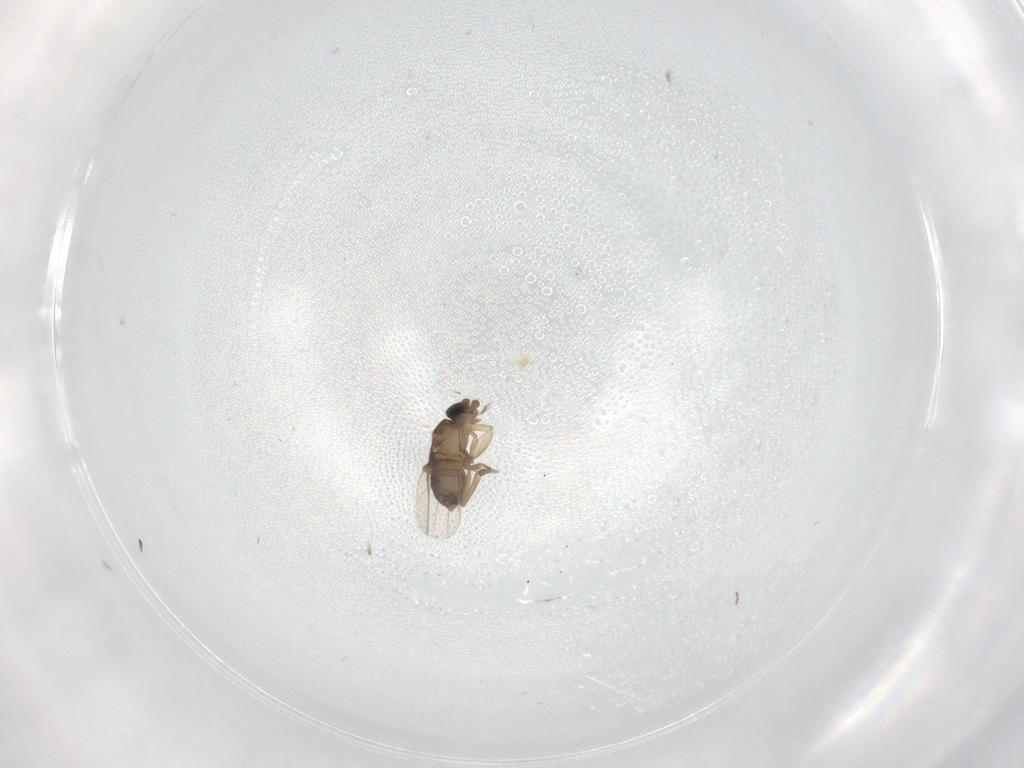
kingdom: Animalia
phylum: Arthropoda
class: Insecta
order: Diptera
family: Phoridae
